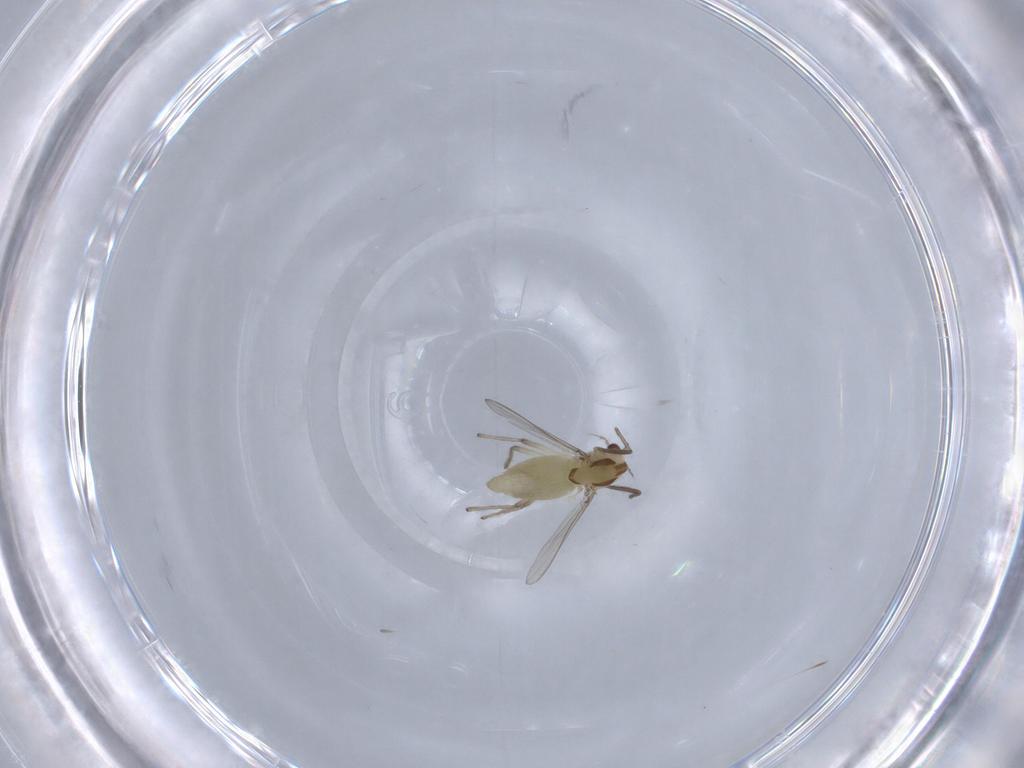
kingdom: Animalia
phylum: Arthropoda
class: Insecta
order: Diptera
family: Chironomidae
